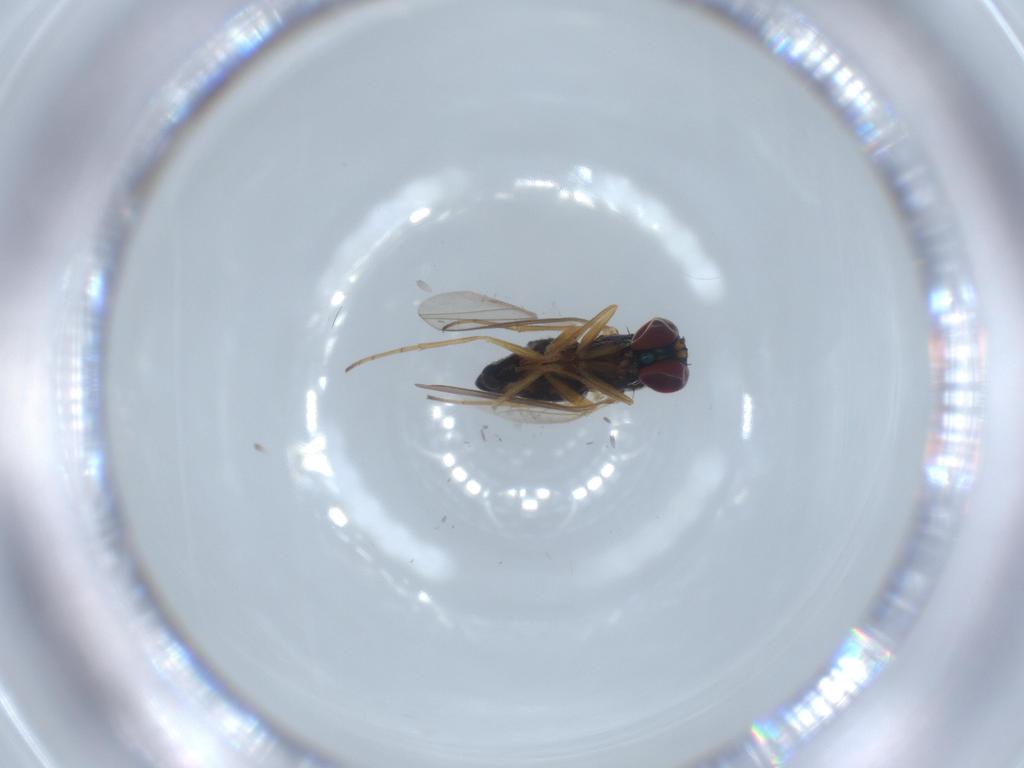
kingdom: Animalia
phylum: Arthropoda
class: Insecta
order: Diptera
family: Dolichopodidae
